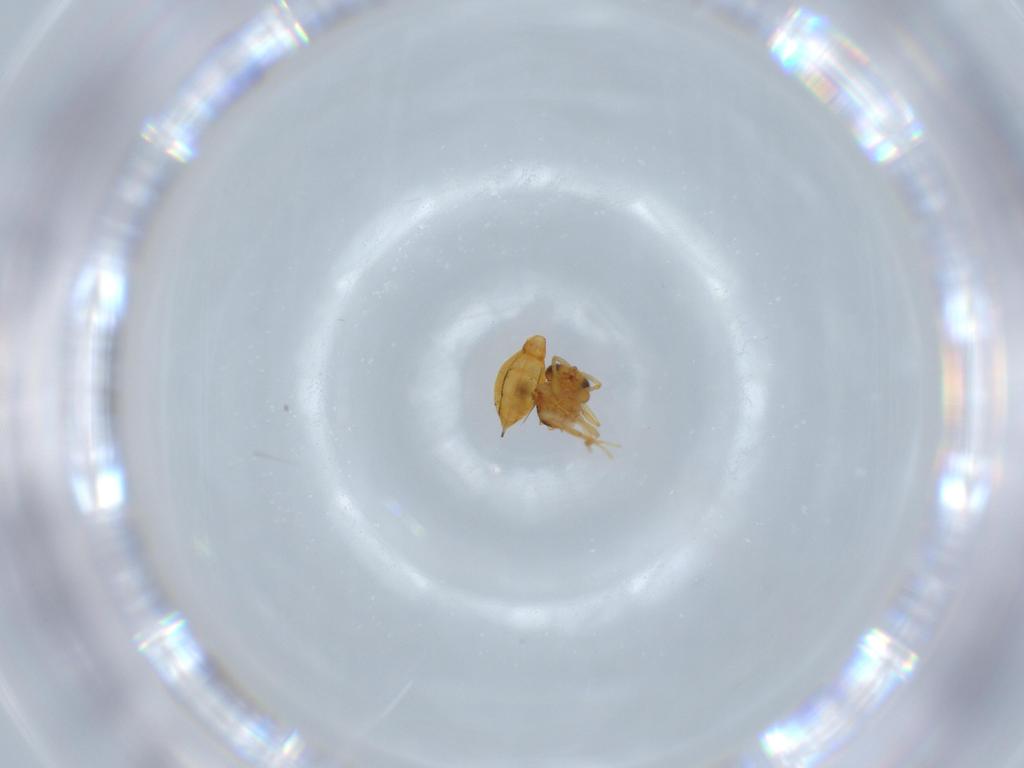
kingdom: Animalia
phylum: Arthropoda
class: Insecta
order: Hymenoptera
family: Scelionidae
